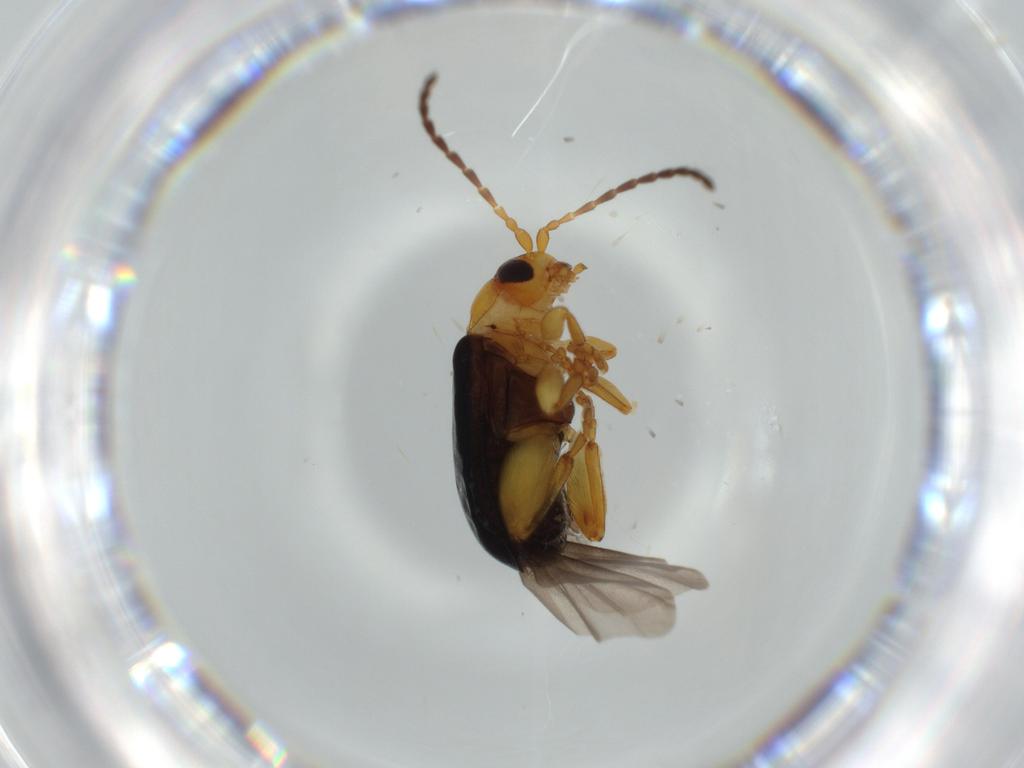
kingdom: Animalia
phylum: Arthropoda
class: Insecta
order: Coleoptera
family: Chrysomelidae
